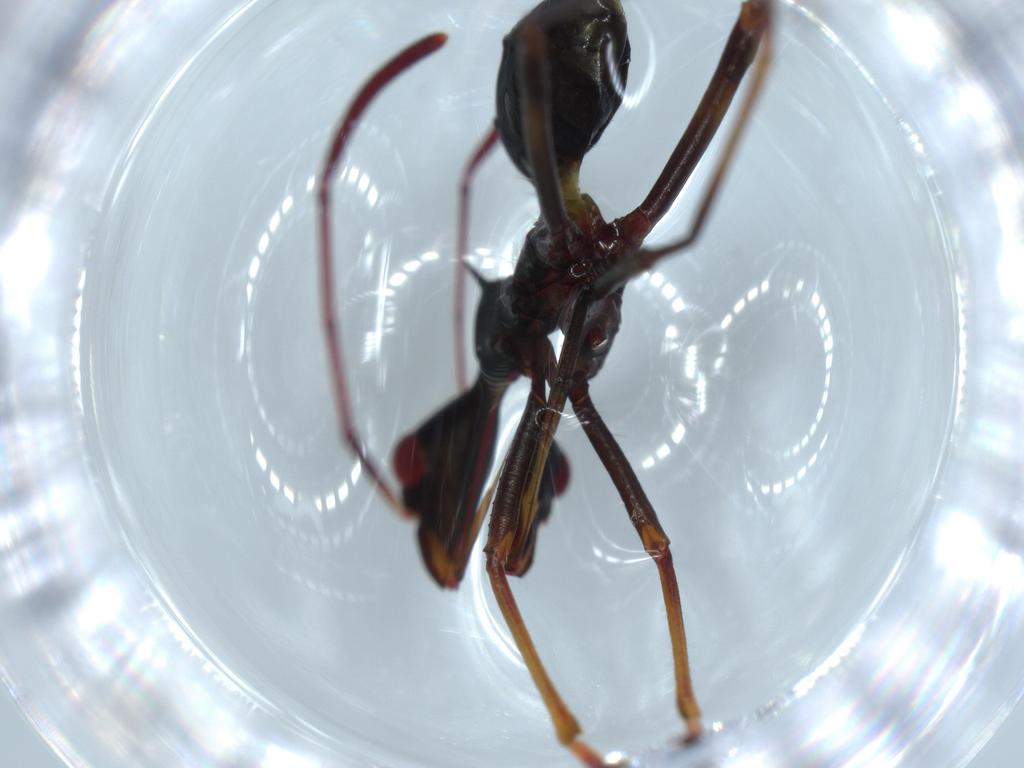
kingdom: Animalia
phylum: Arthropoda
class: Insecta
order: Hemiptera
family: Alydidae
